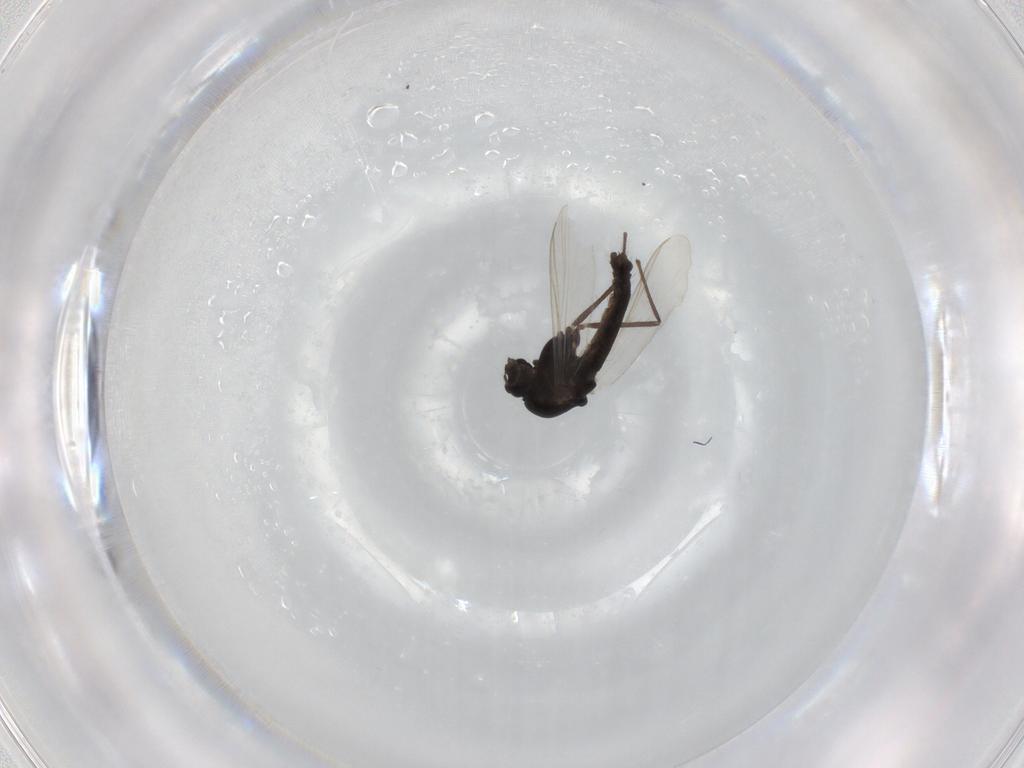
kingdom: Animalia
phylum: Arthropoda
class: Insecta
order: Diptera
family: Chironomidae
